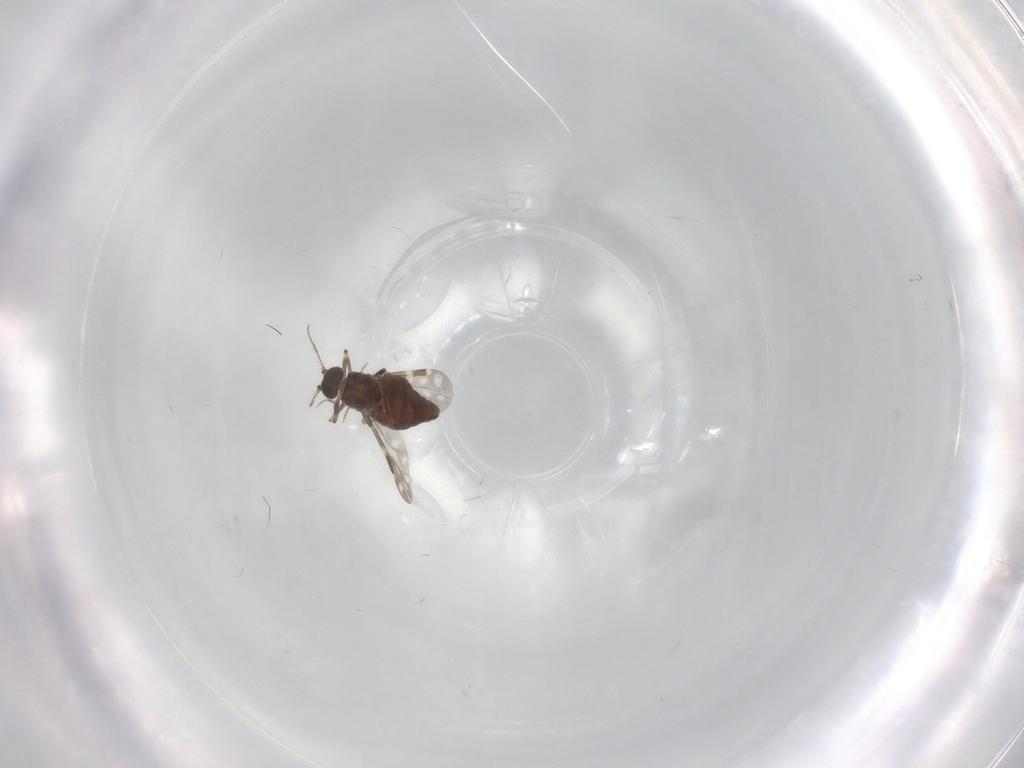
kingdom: Animalia
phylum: Arthropoda
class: Insecta
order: Diptera
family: Ceratopogonidae
